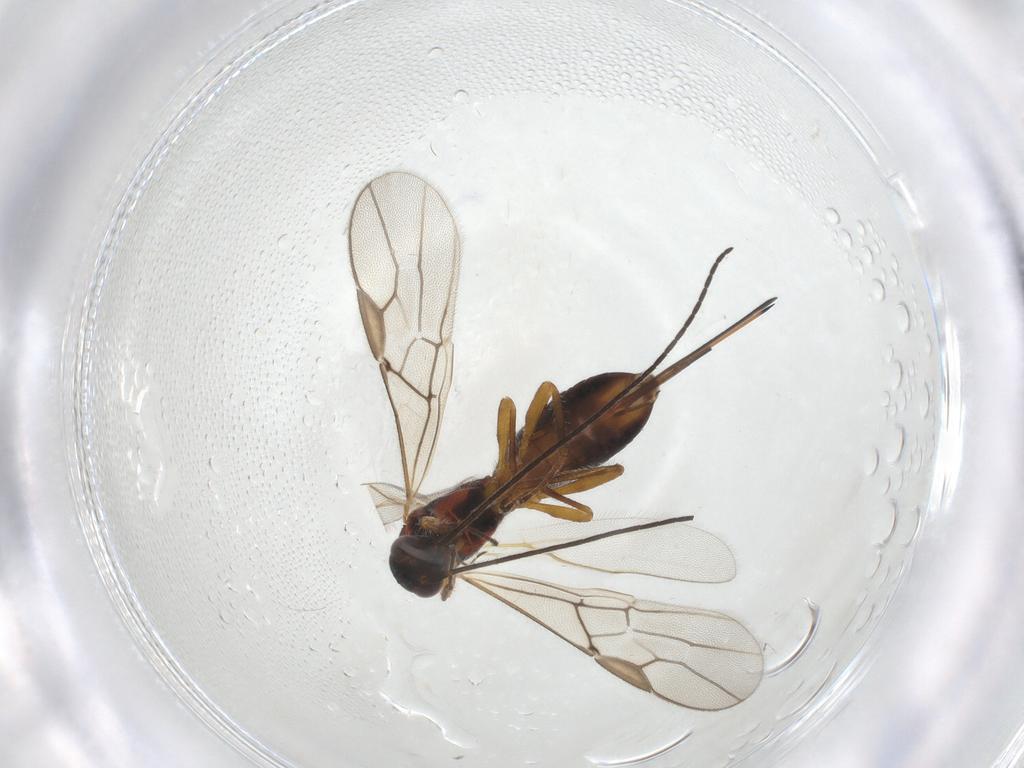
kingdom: Animalia
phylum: Arthropoda
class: Insecta
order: Hymenoptera
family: Braconidae
